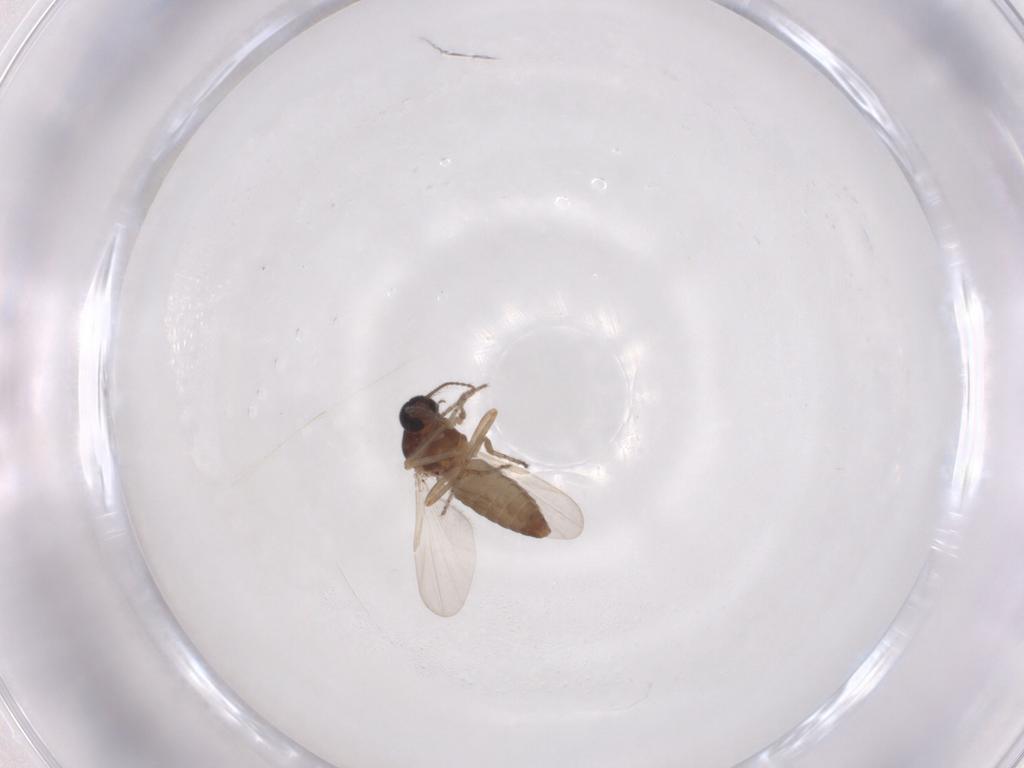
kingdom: Animalia
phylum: Arthropoda
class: Insecta
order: Diptera
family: Ceratopogonidae
